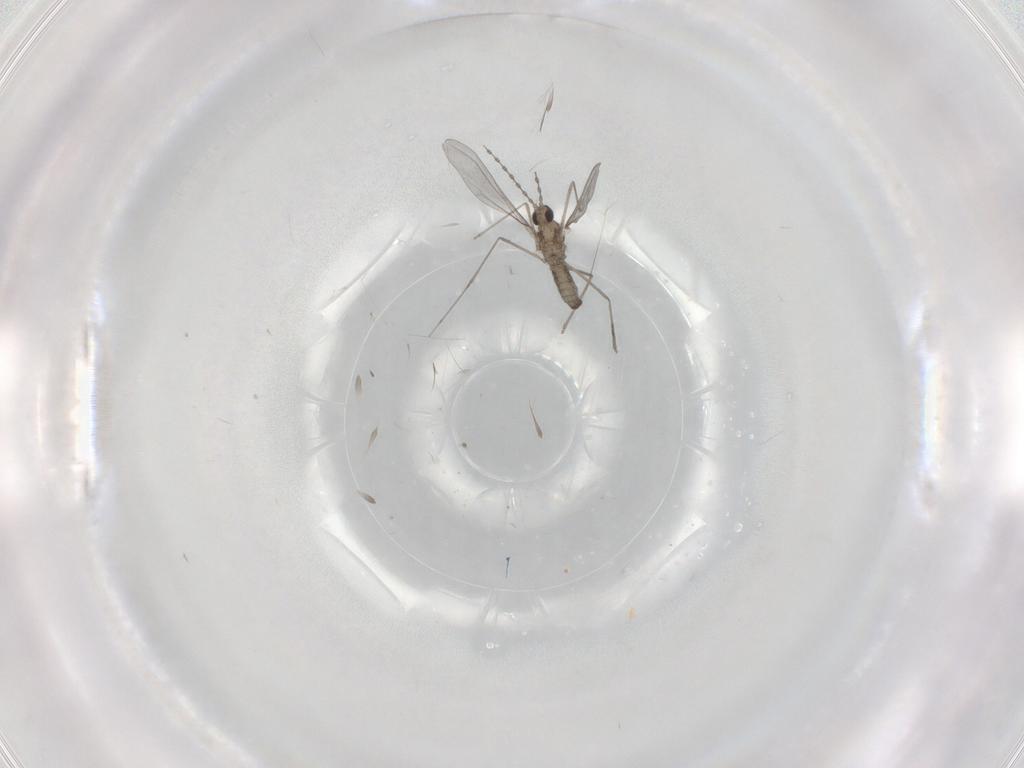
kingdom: Animalia
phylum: Arthropoda
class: Insecta
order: Diptera
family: Cecidomyiidae
